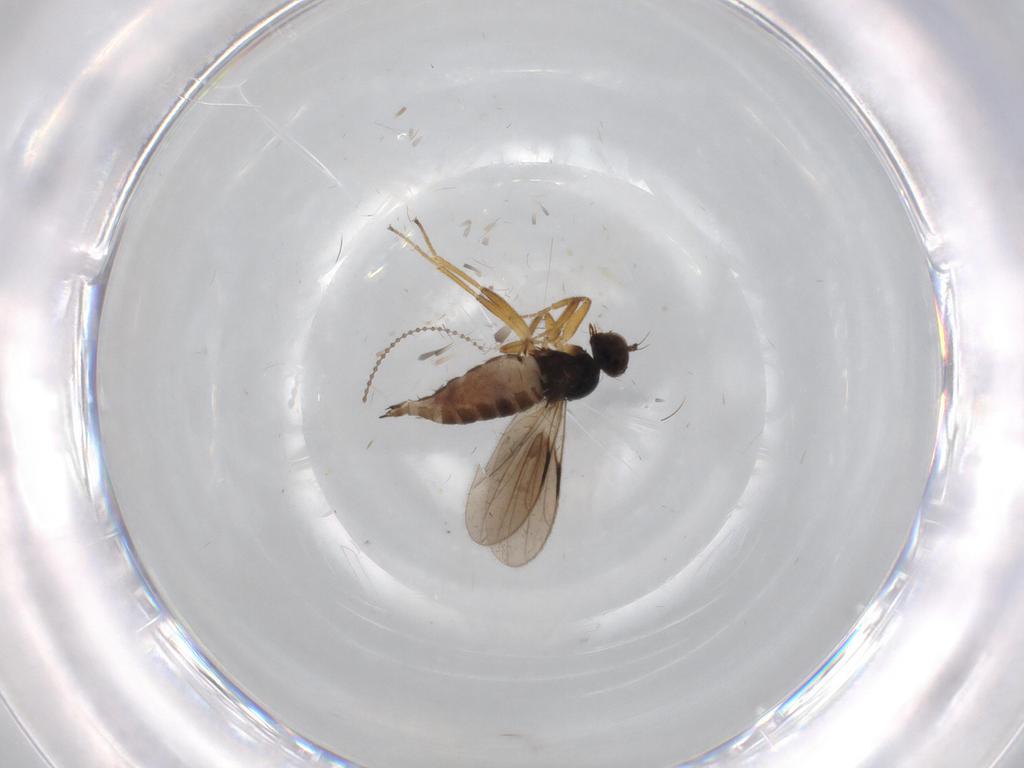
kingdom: Animalia
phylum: Arthropoda
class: Insecta
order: Diptera
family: Hybotidae
